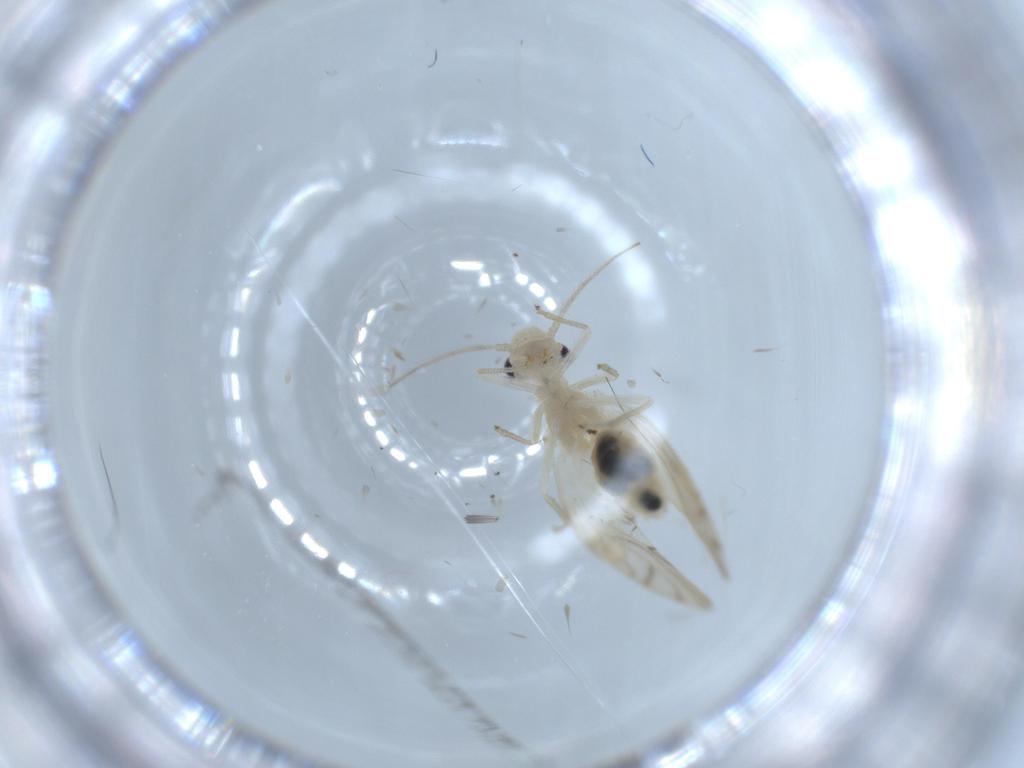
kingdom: Animalia
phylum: Arthropoda
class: Insecta
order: Psocodea
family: Caeciliusidae
